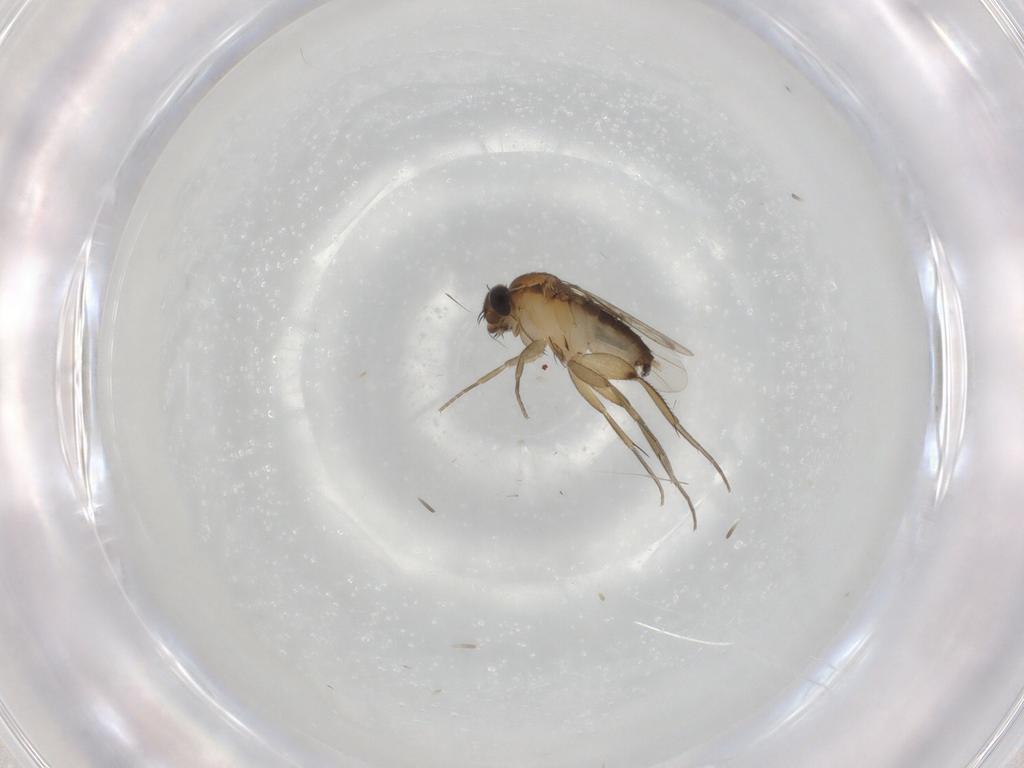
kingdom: Animalia
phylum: Arthropoda
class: Insecta
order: Diptera
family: Phoridae
